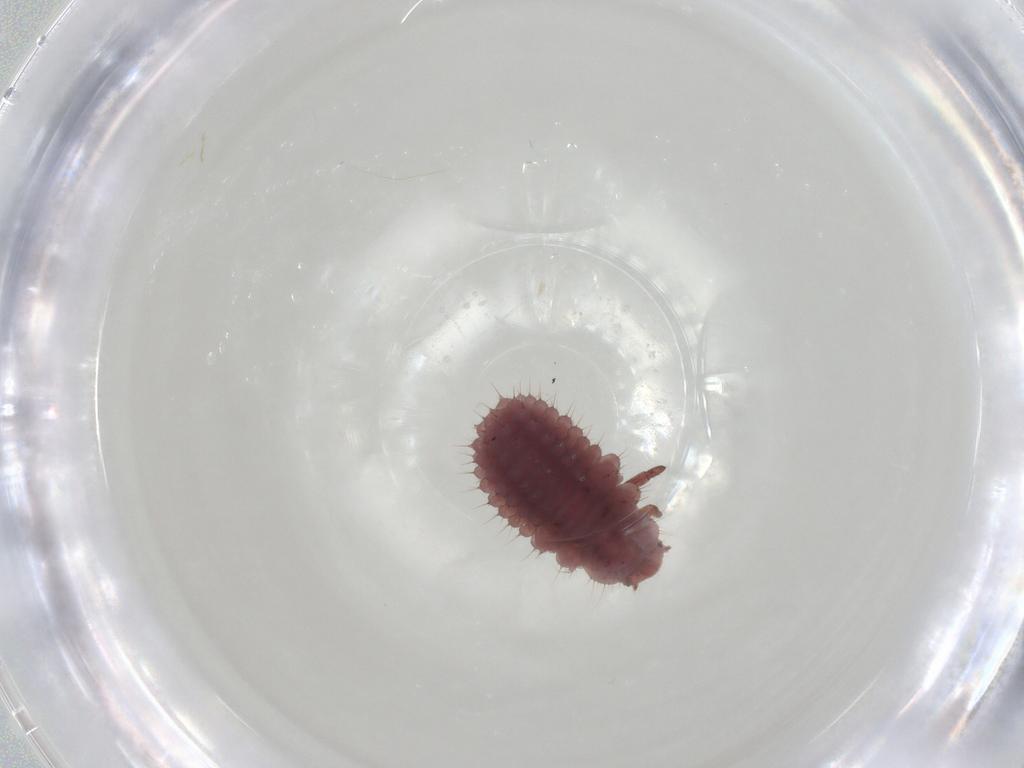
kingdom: Animalia
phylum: Arthropoda
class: Insecta
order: Coleoptera
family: Coccinellidae
